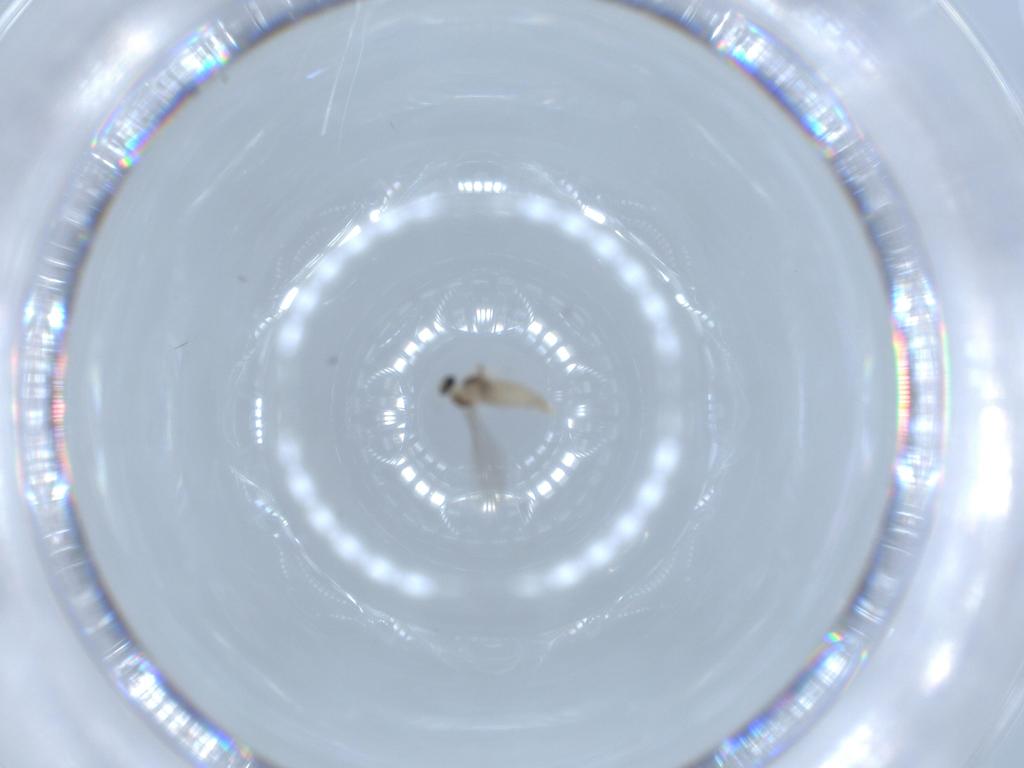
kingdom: Animalia
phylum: Arthropoda
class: Insecta
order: Diptera
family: Cecidomyiidae
